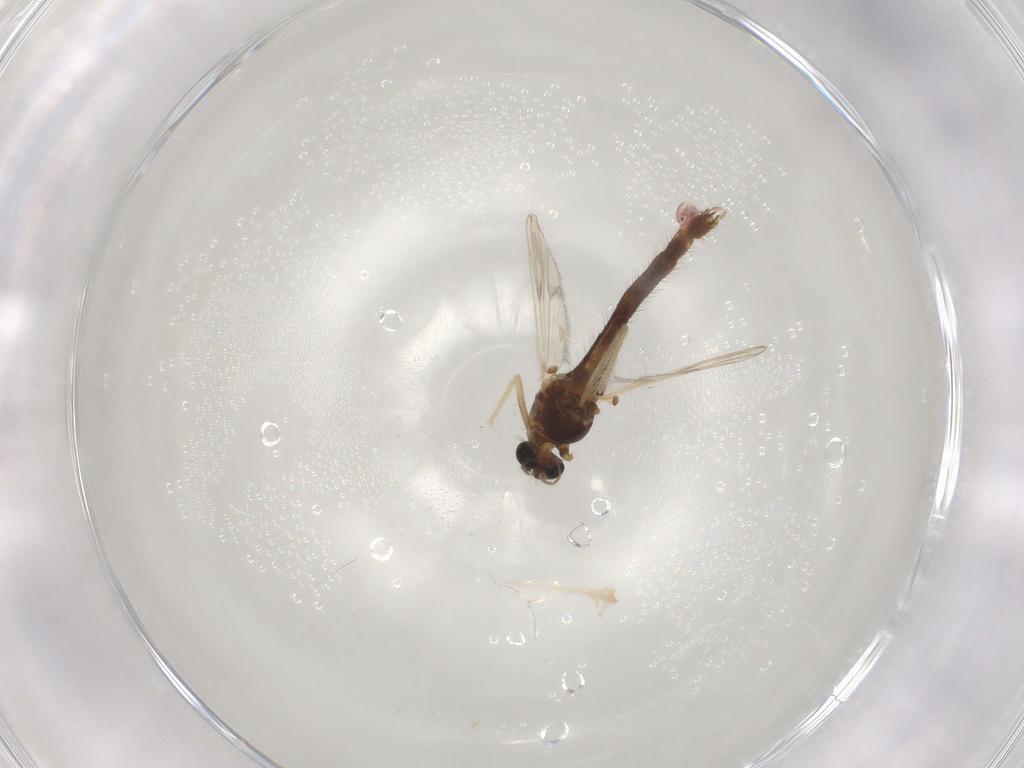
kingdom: Animalia
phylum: Arthropoda
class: Insecta
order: Diptera
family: Chironomidae
